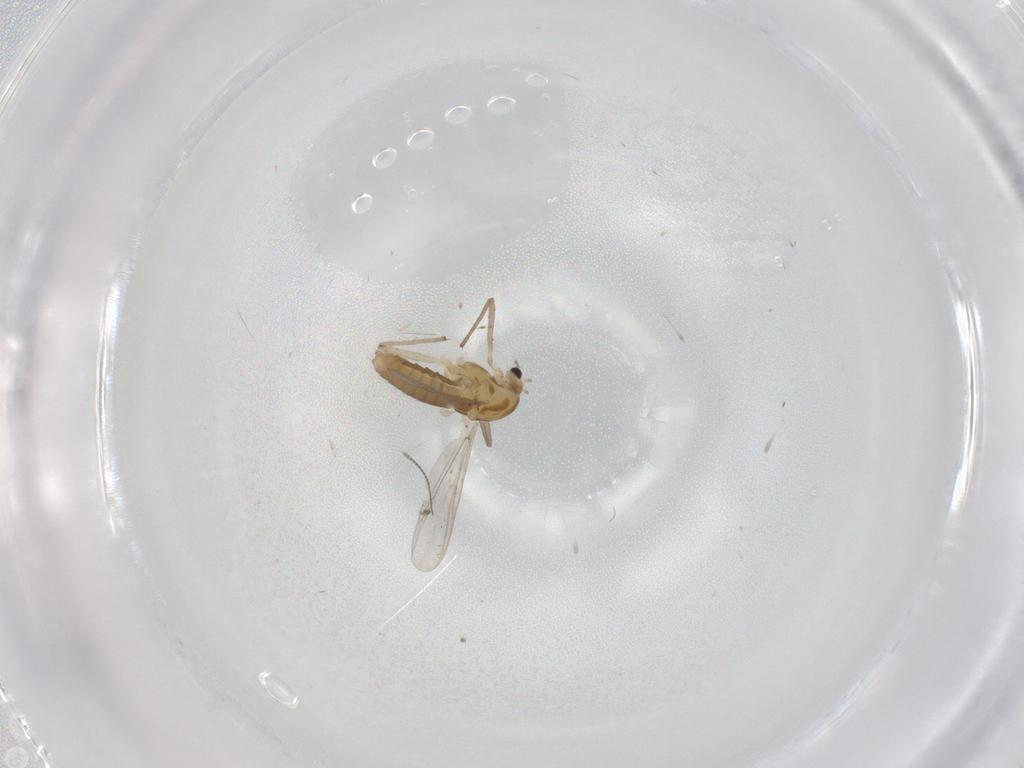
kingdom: Animalia
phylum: Arthropoda
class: Insecta
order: Diptera
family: Chironomidae
